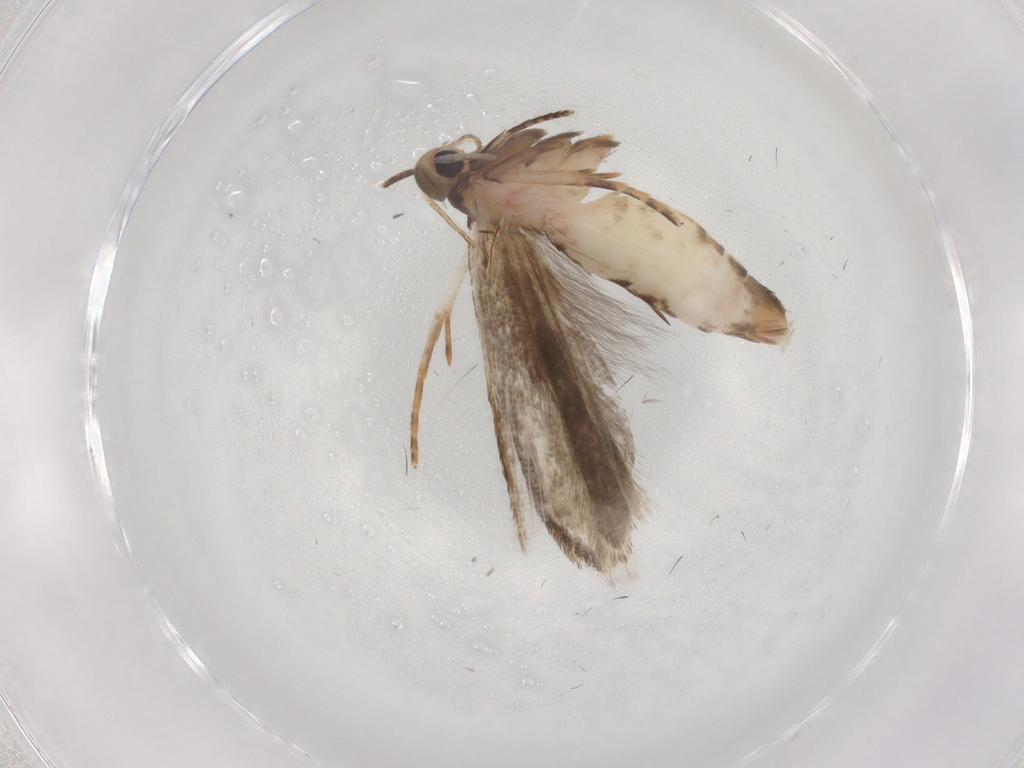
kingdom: Animalia
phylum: Arthropoda
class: Insecta
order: Lepidoptera
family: Gelechiidae
